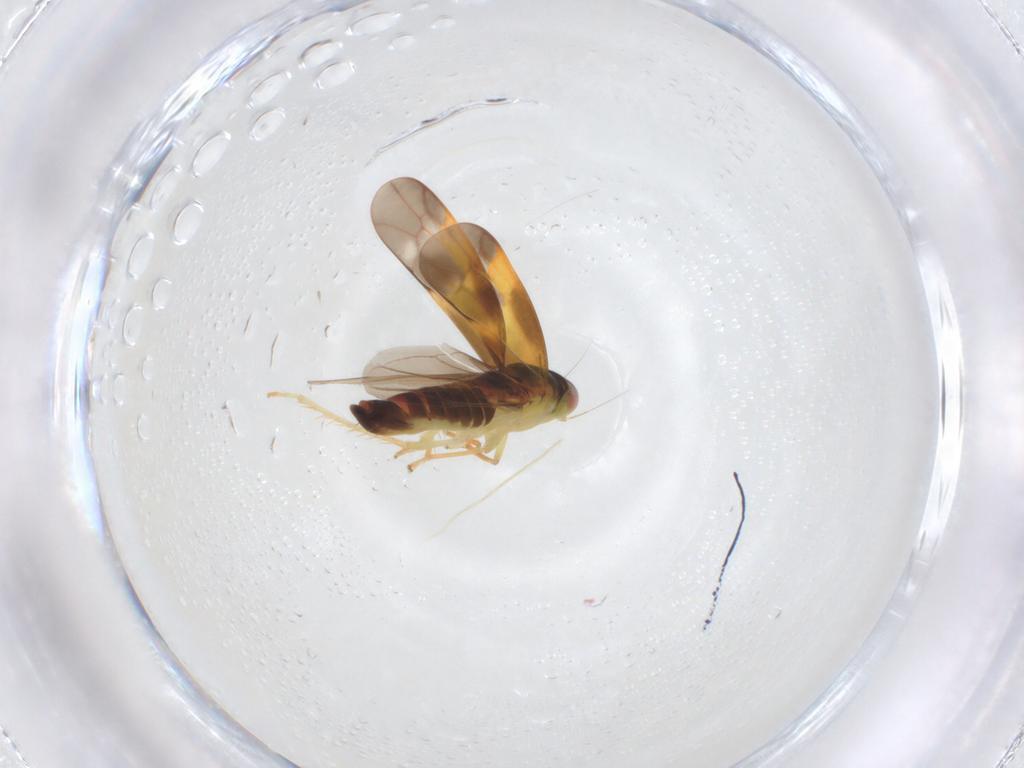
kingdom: Animalia
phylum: Arthropoda
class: Insecta
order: Hemiptera
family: Cicadellidae
